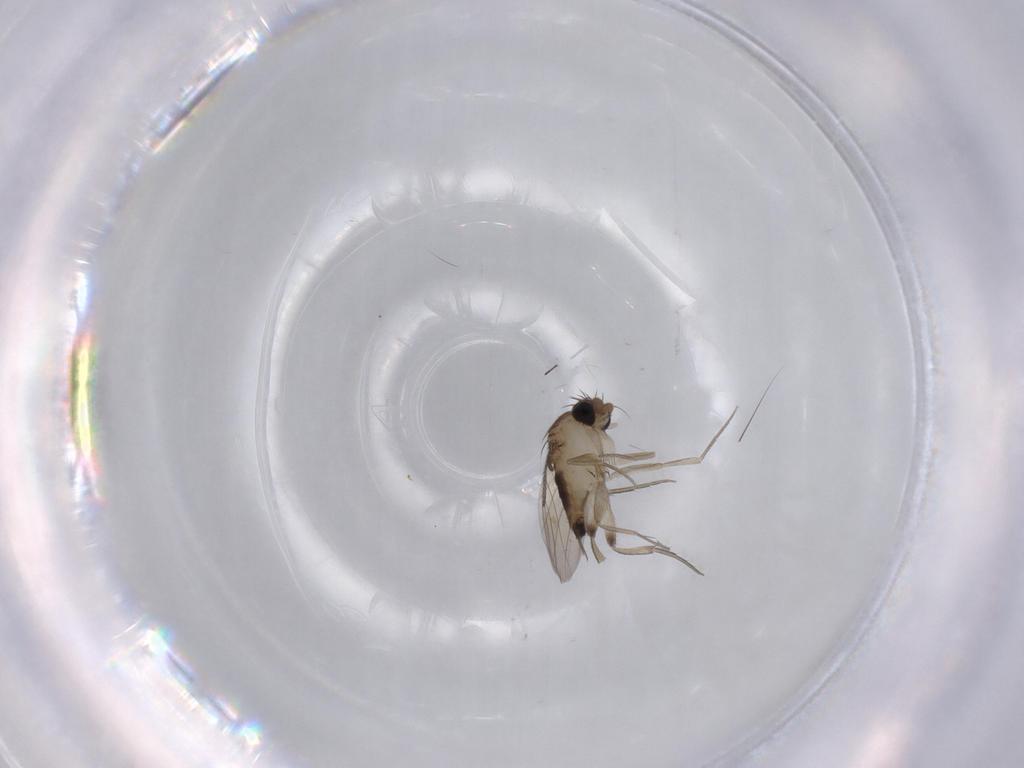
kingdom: Animalia
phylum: Arthropoda
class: Insecta
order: Diptera
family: Phoridae
